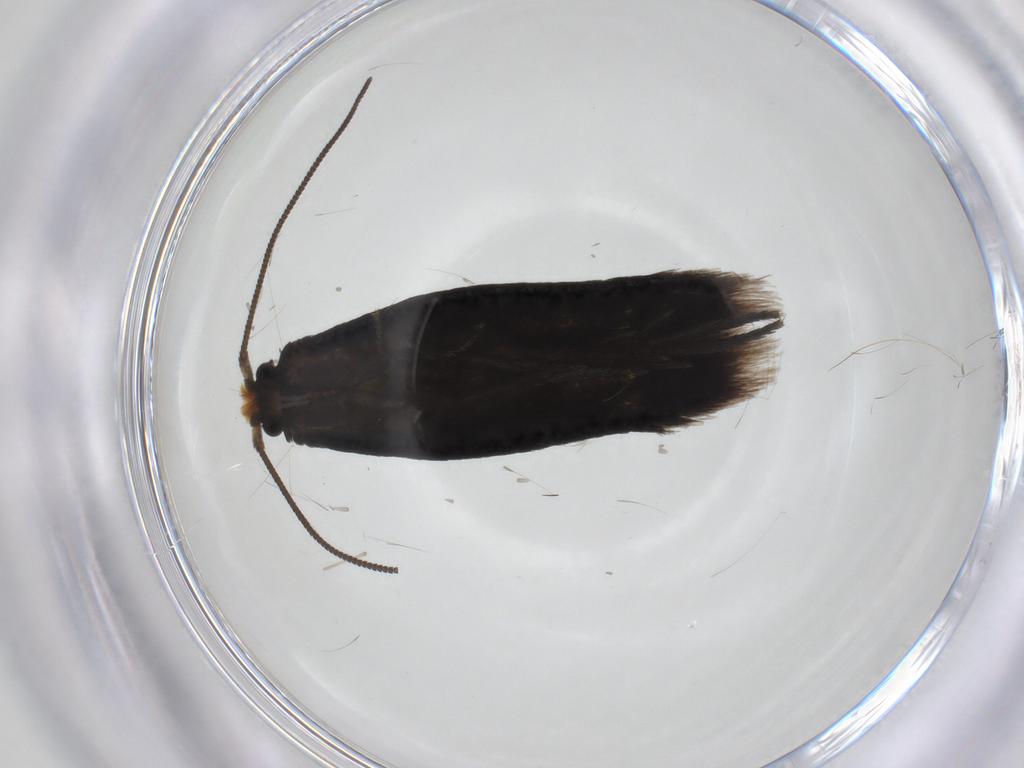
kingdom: Animalia
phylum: Arthropoda
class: Insecta
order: Lepidoptera
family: Nepticulidae
